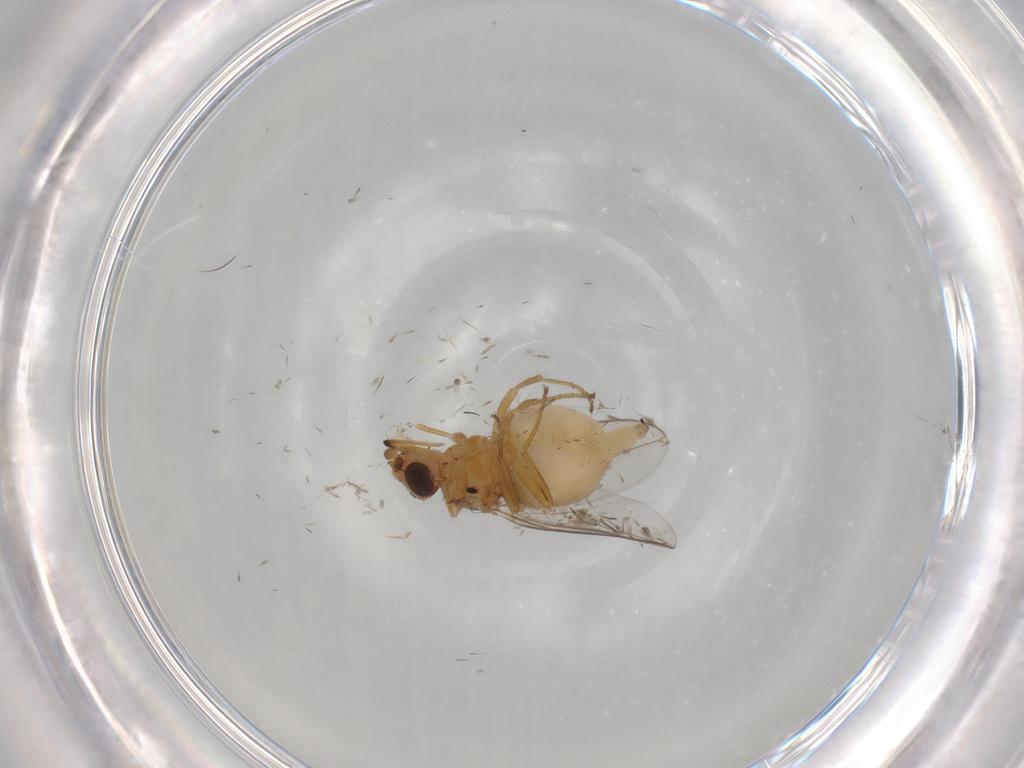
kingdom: Animalia
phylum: Arthropoda
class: Insecta
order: Diptera
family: Chloropidae
